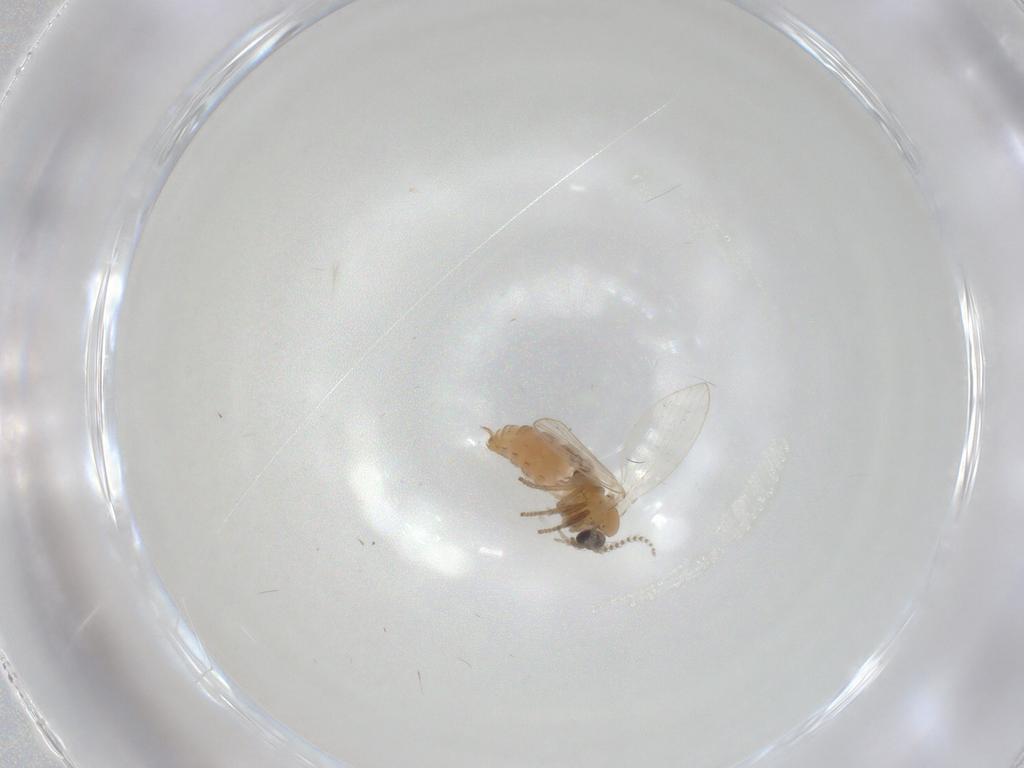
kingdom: Animalia
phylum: Arthropoda
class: Insecta
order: Diptera
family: Psychodidae
